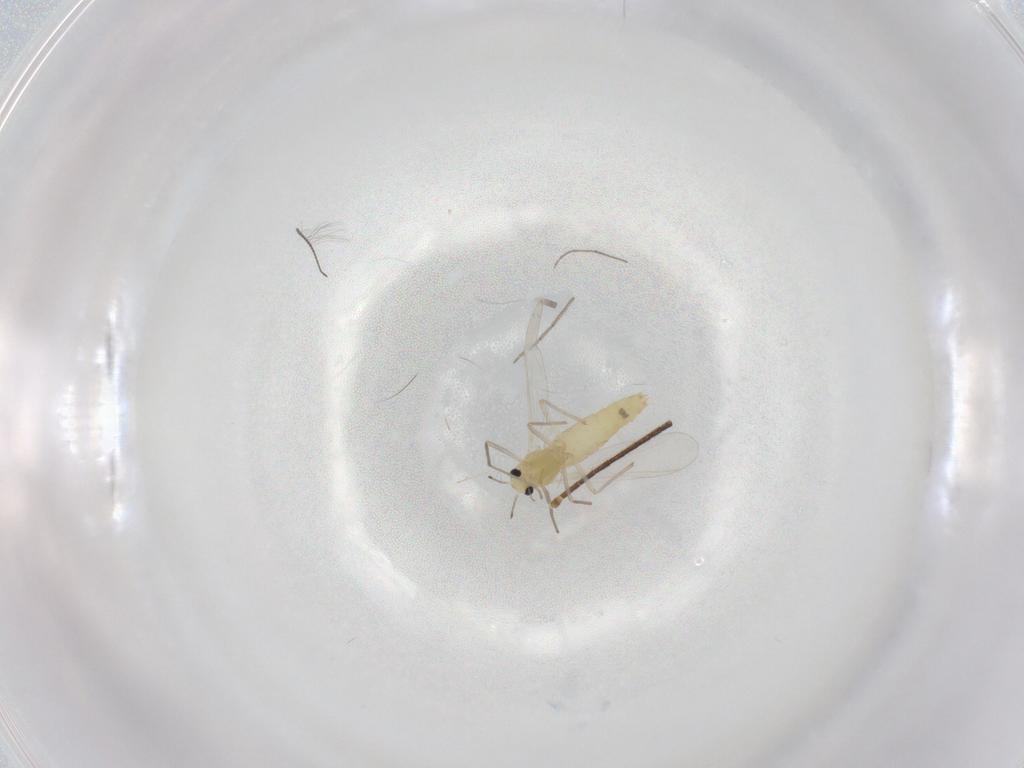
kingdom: Animalia
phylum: Arthropoda
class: Insecta
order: Diptera
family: Chironomidae
